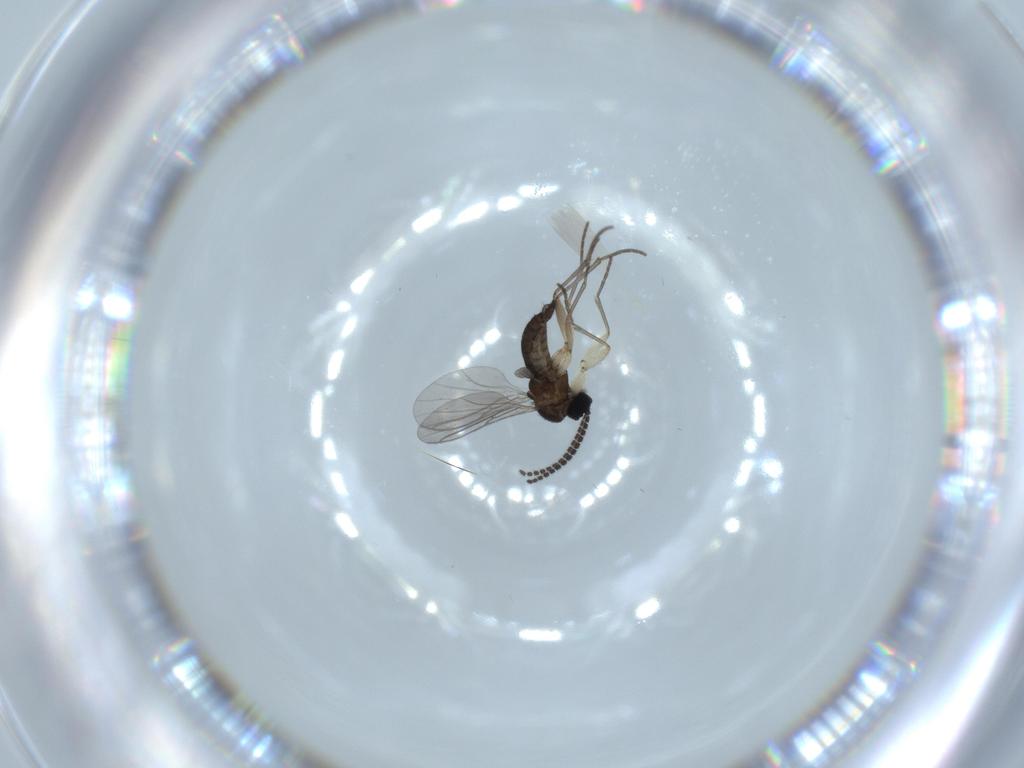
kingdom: Animalia
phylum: Arthropoda
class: Insecta
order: Diptera
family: Sciaridae
